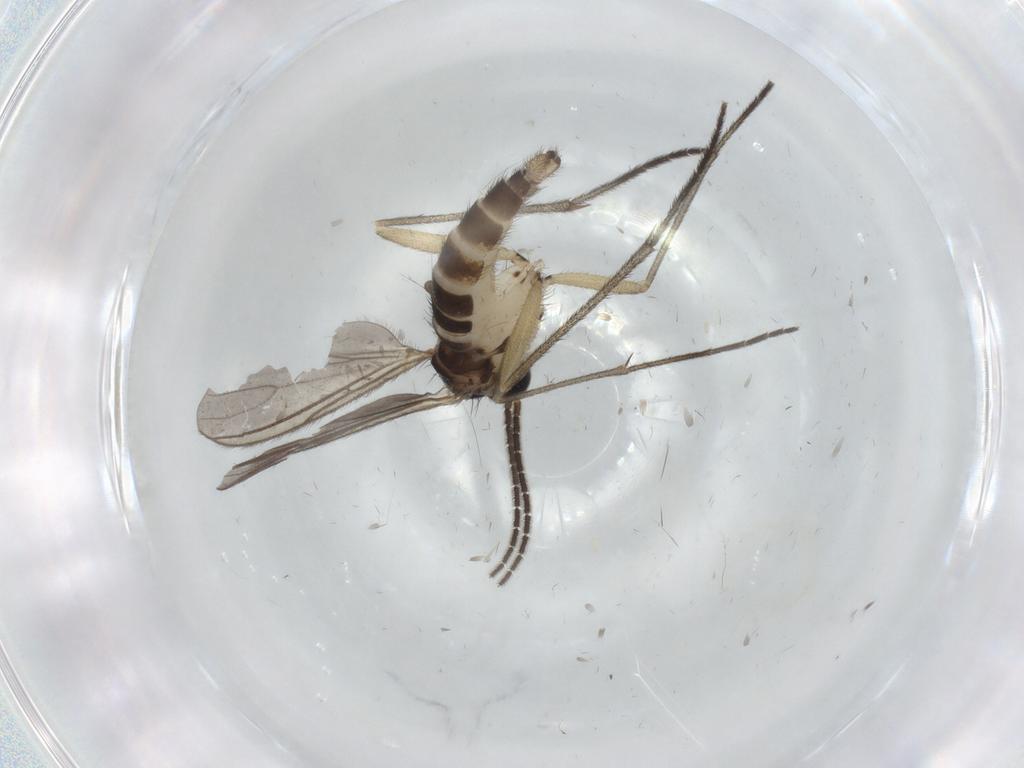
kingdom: Animalia
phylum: Arthropoda
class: Insecta
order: Diptera
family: Sciaridae
